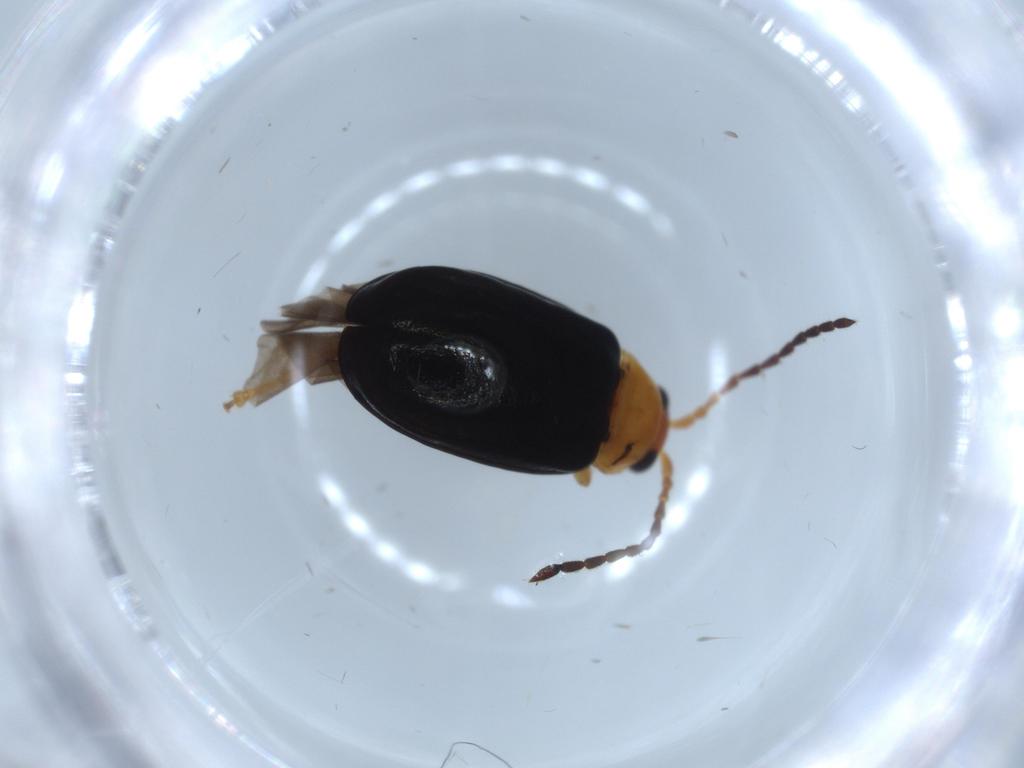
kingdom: Animalia
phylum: Arthropoda
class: Insecta
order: Coleoptera
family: Chrysomelidae
